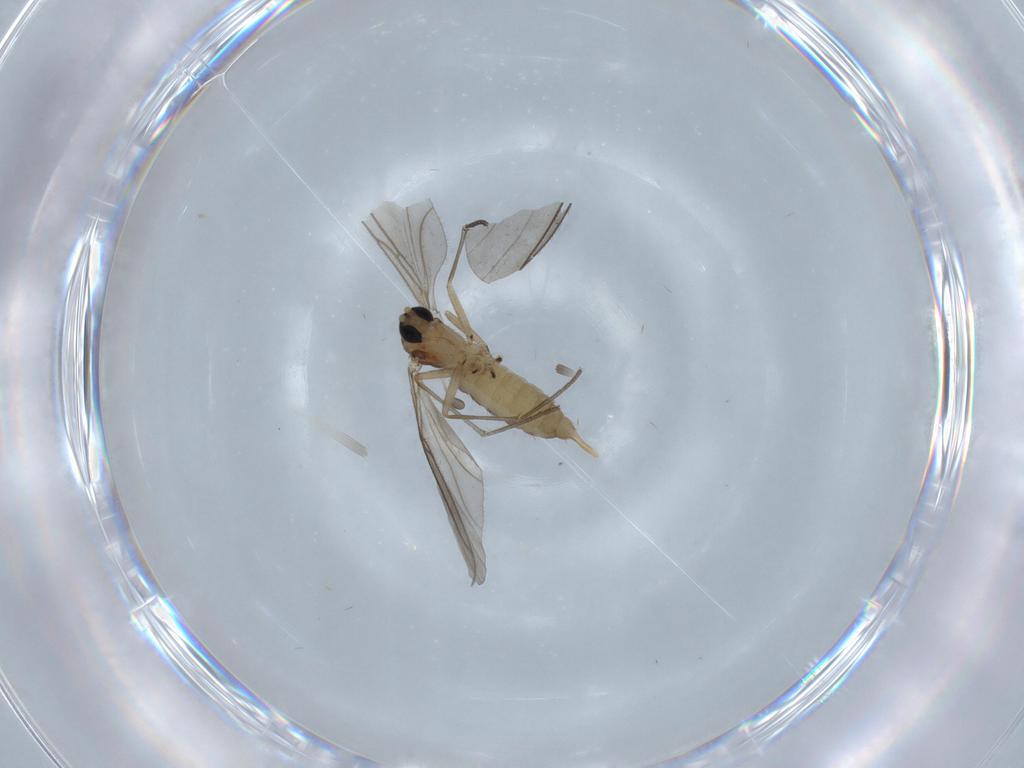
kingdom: Animalia
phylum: Arthropoda
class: Insecta
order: Diptera
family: Sciaridae
